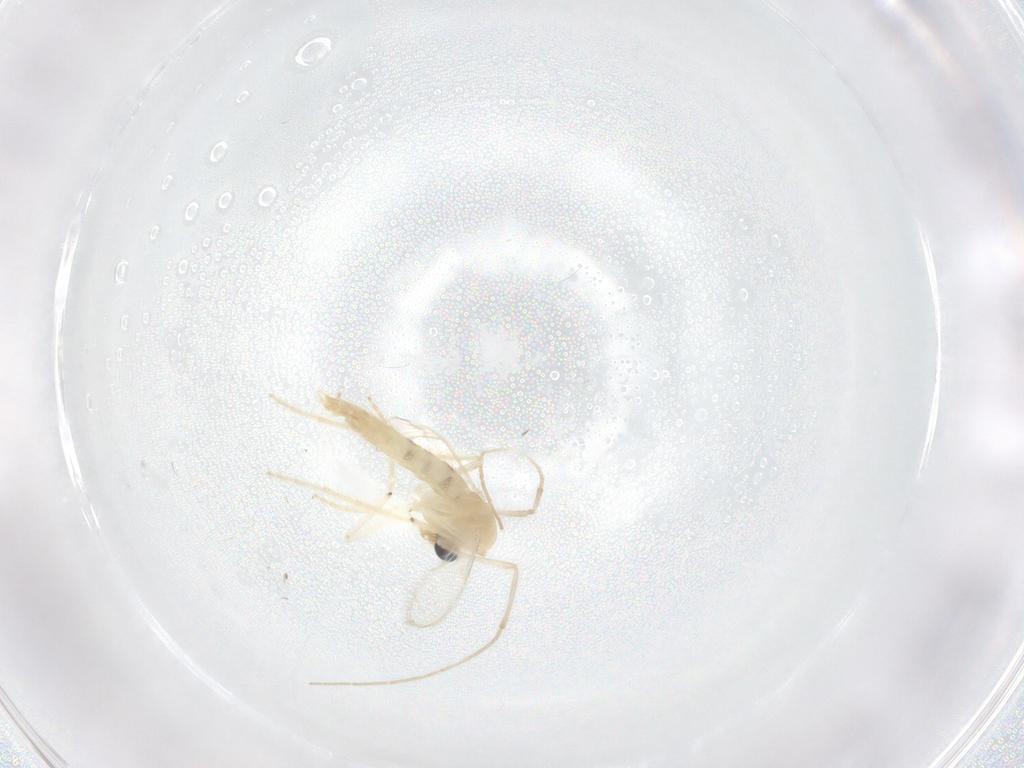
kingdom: Animalia
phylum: Arthropoda
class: Insecta
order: Diptera
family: Chironomidae
